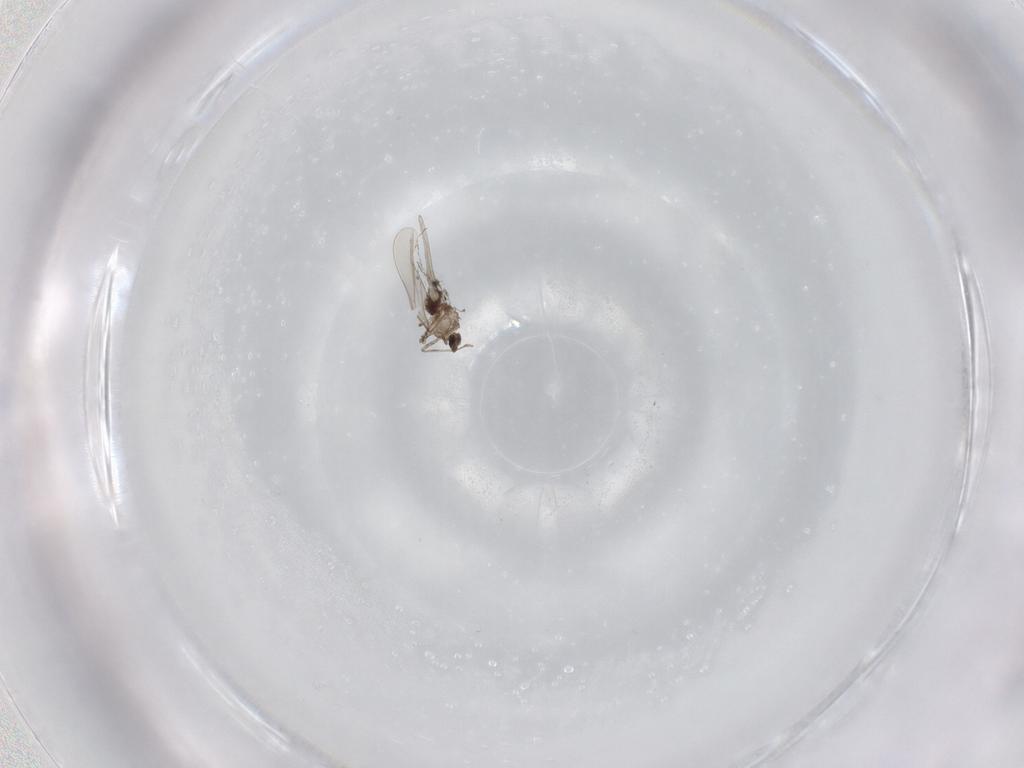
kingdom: Animalia
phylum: Arthropoda
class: Insecta
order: Diptera
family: Cecidomyiidae
